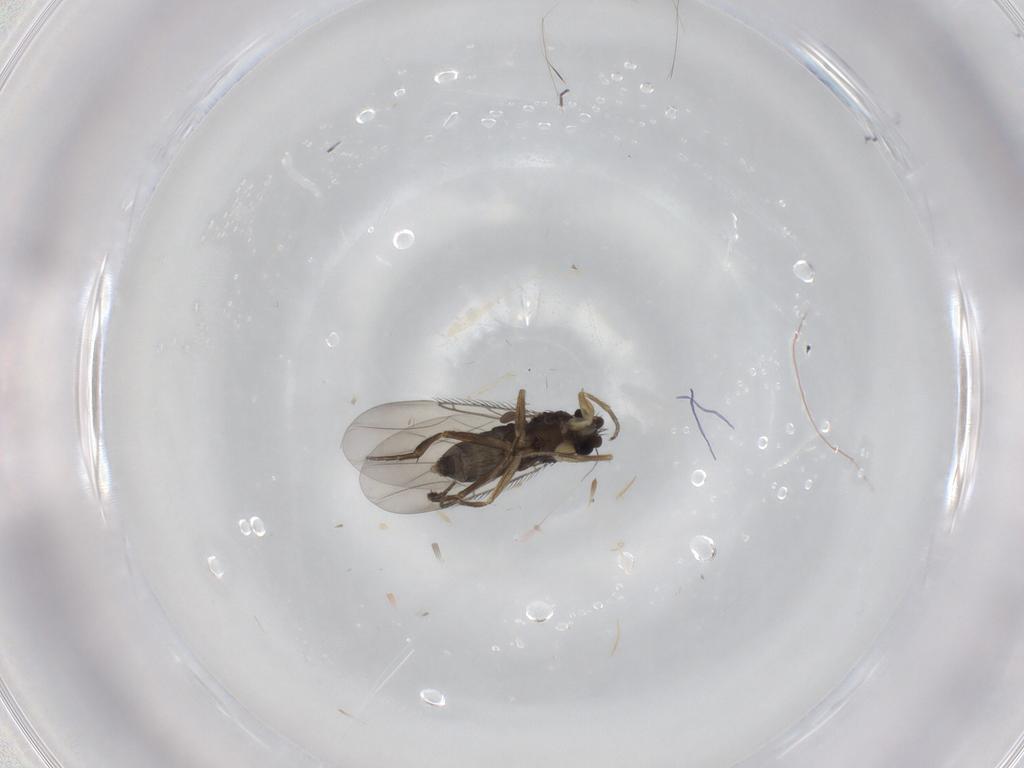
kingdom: Animalia
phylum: Arthropoda
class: Insecta
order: Diptera
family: Phoridae
